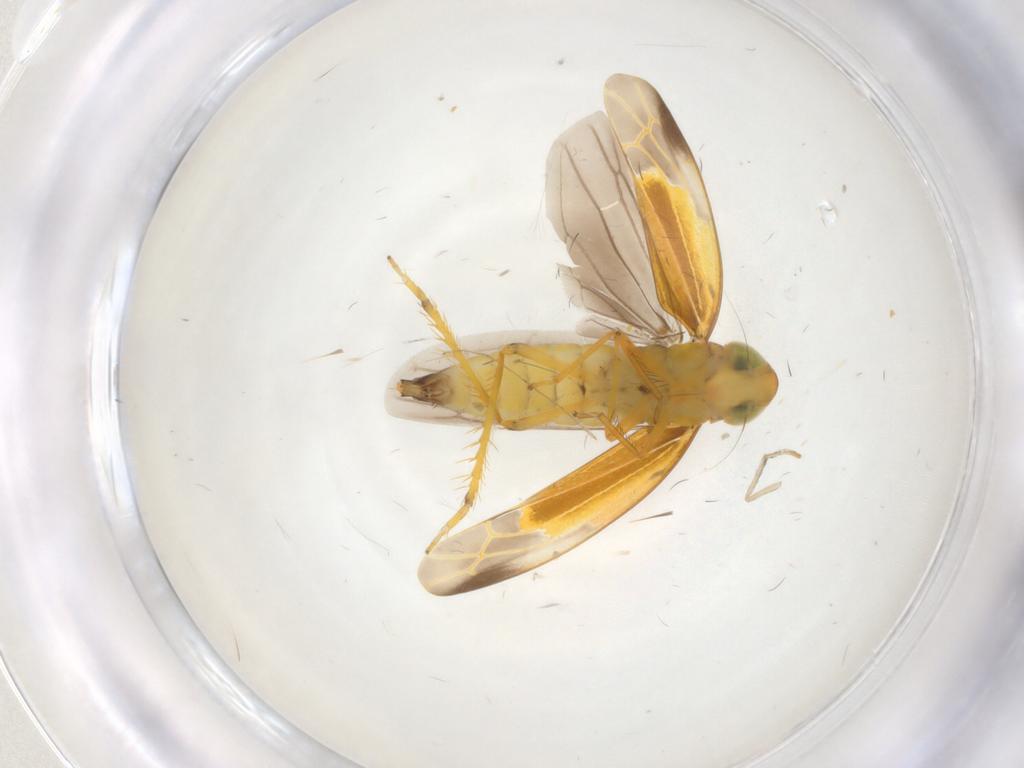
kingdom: Animalia
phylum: Arthropoda
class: Insecta
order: Hemiptera
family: Cicadellidae
